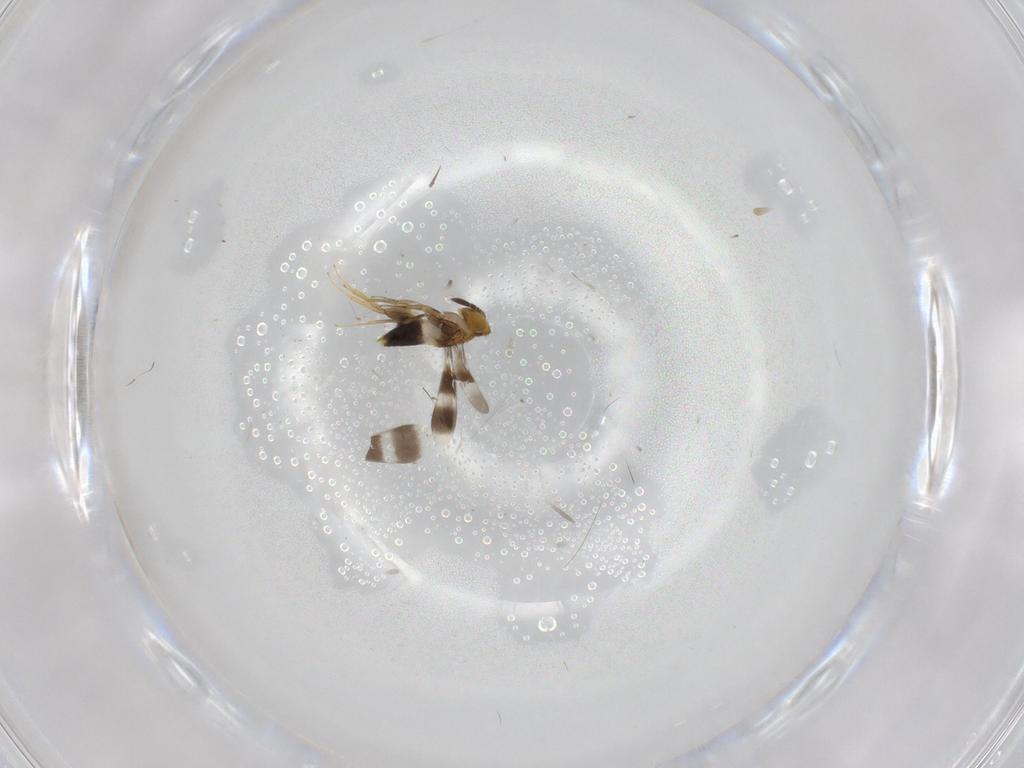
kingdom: Animalia
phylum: Arthropoda
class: Insecta
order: Hymenoptera
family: Aphelinidae
